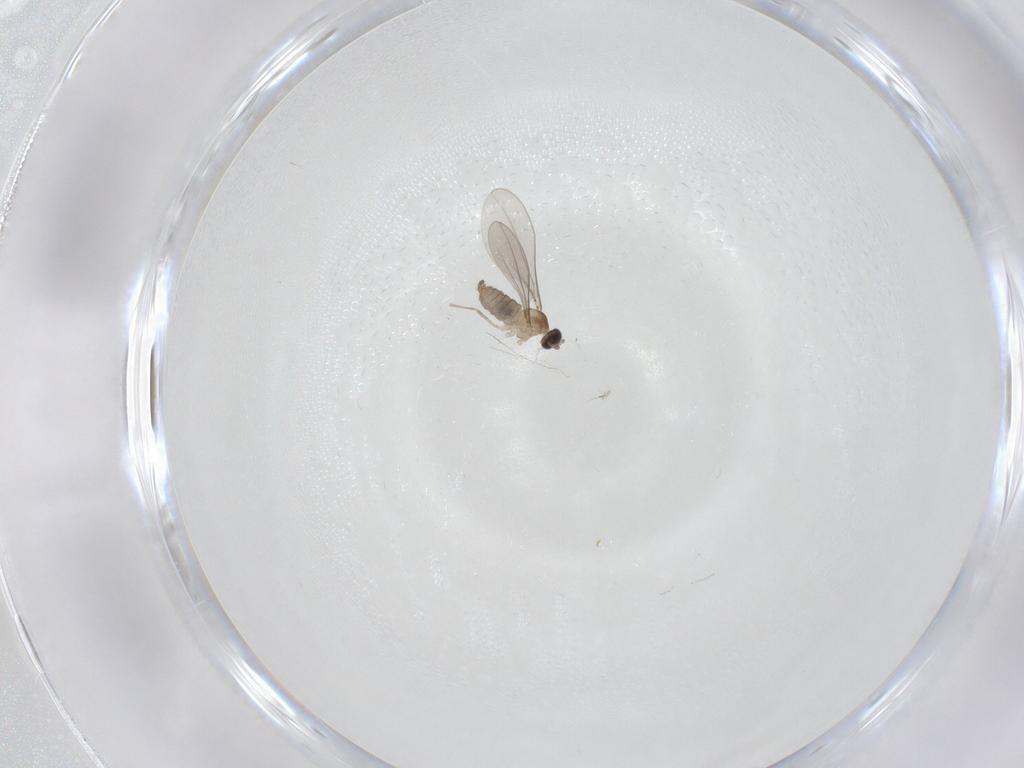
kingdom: Animalia
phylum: Arthropoda
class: Insecta
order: Diptera
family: Cecidomyiidae
